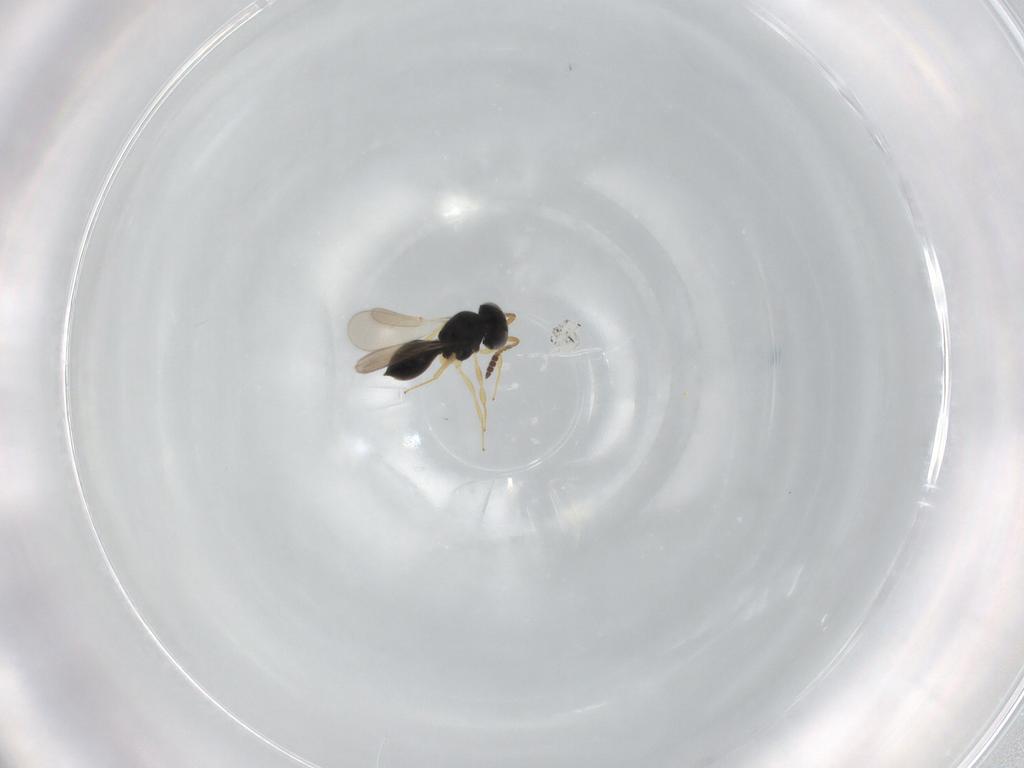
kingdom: Animalia
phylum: Arthropoda
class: Insecta
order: Hymenoptera
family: Scelionidae
